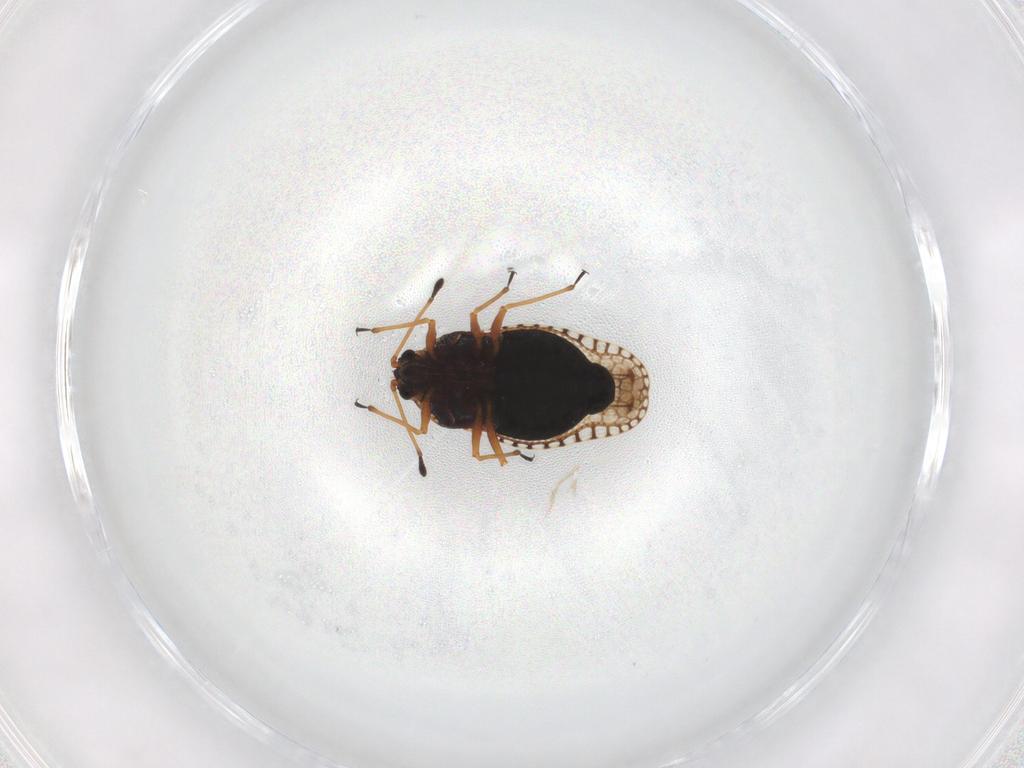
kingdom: Animalia
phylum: Arthropoda
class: Insecta
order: Hemiptera
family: Tingidae
